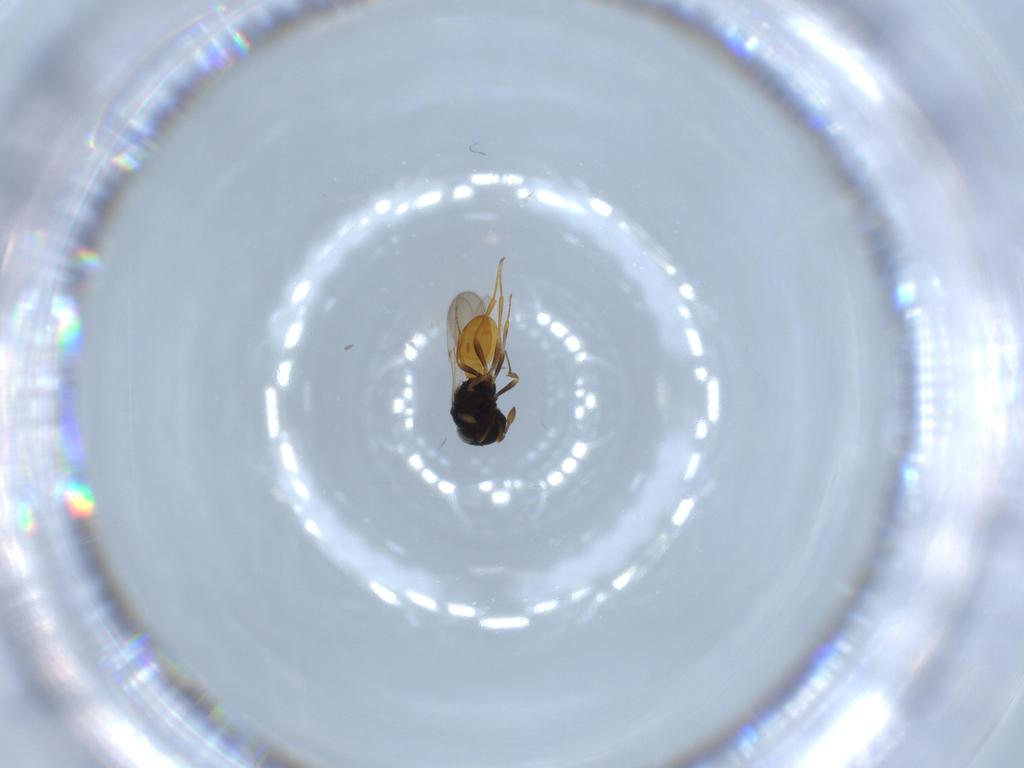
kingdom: Animalia
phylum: Arthropoda
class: Insecta
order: Hymenoptera
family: Scelionidae
